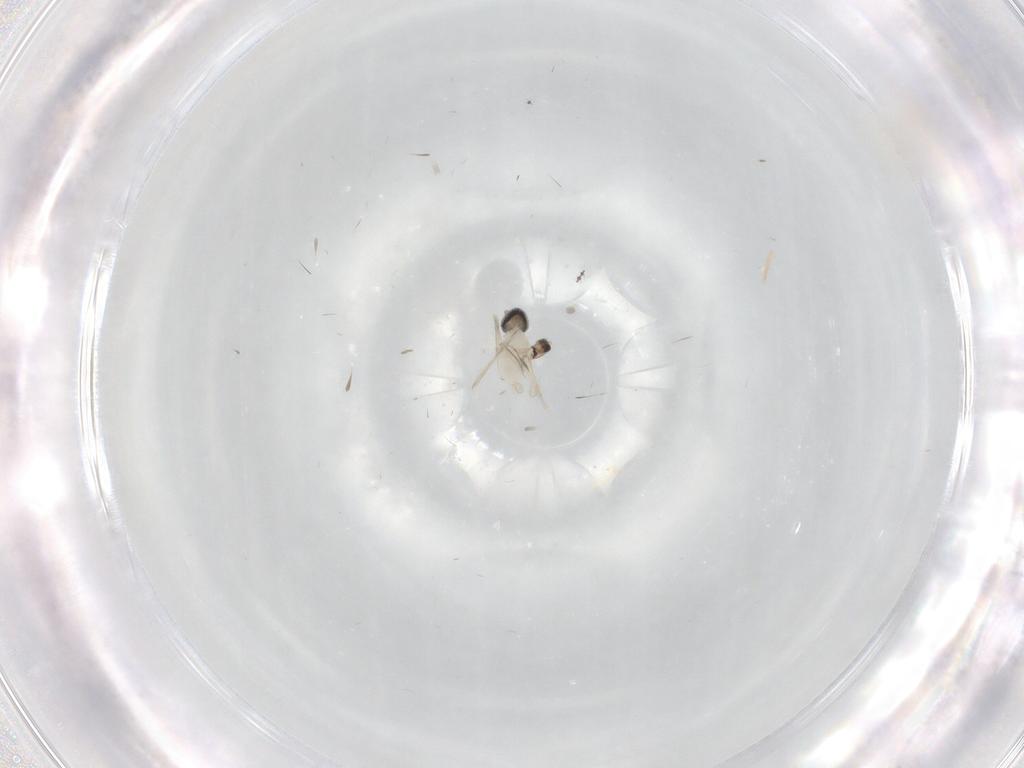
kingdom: Animalia
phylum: Arthropoda
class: Insecta
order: Diptera
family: Cecidomyiidae
